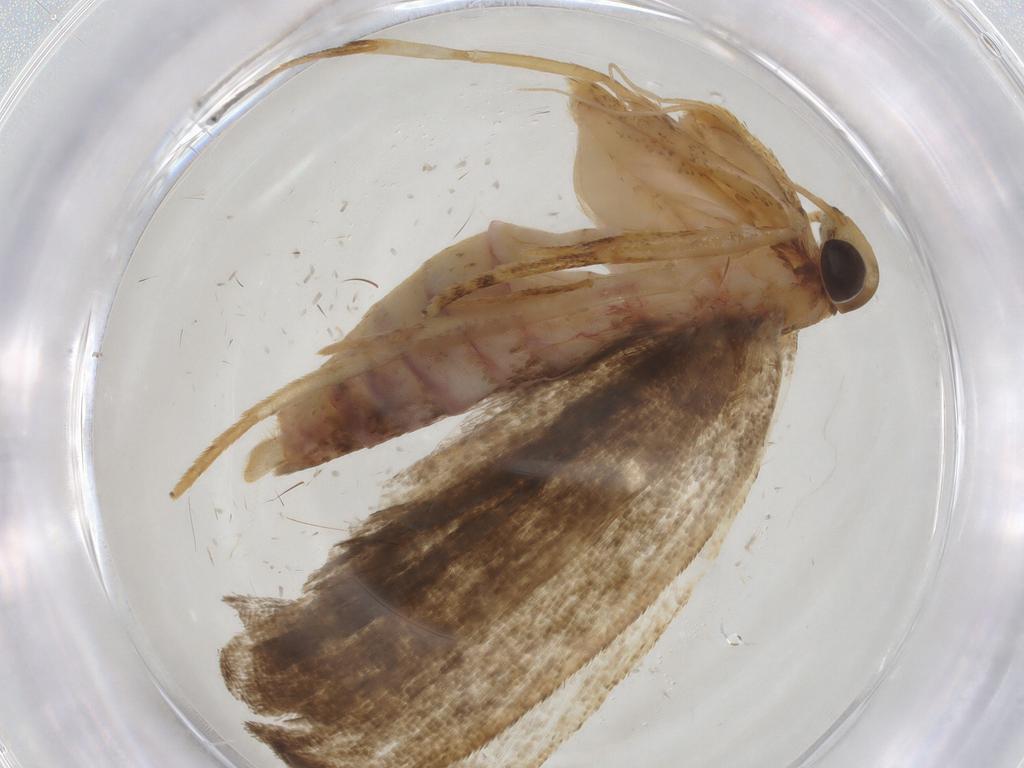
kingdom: Animalia
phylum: Arthropoda
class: Insecta
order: Lepidoptera
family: Autostichidae
